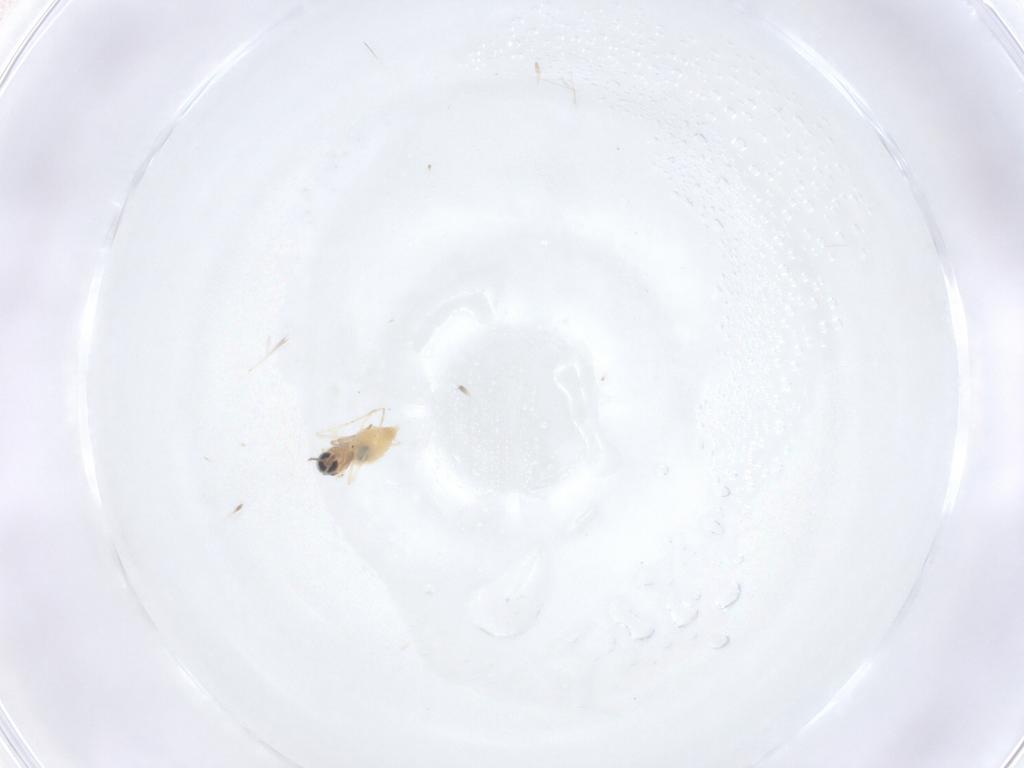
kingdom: Animalia
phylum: Arthropoda
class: Insecta
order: Diptera
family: Cecidomyiidae
